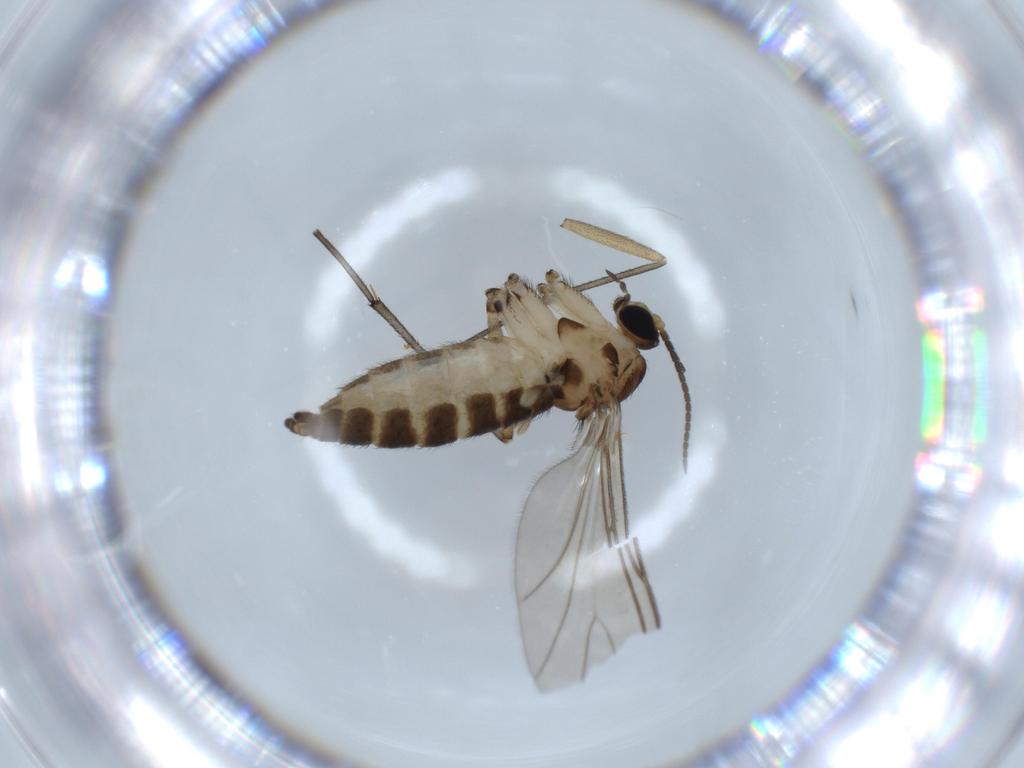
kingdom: Animalia
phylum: Arthropoda
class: Insecta
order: Diptera
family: Sciaridae
